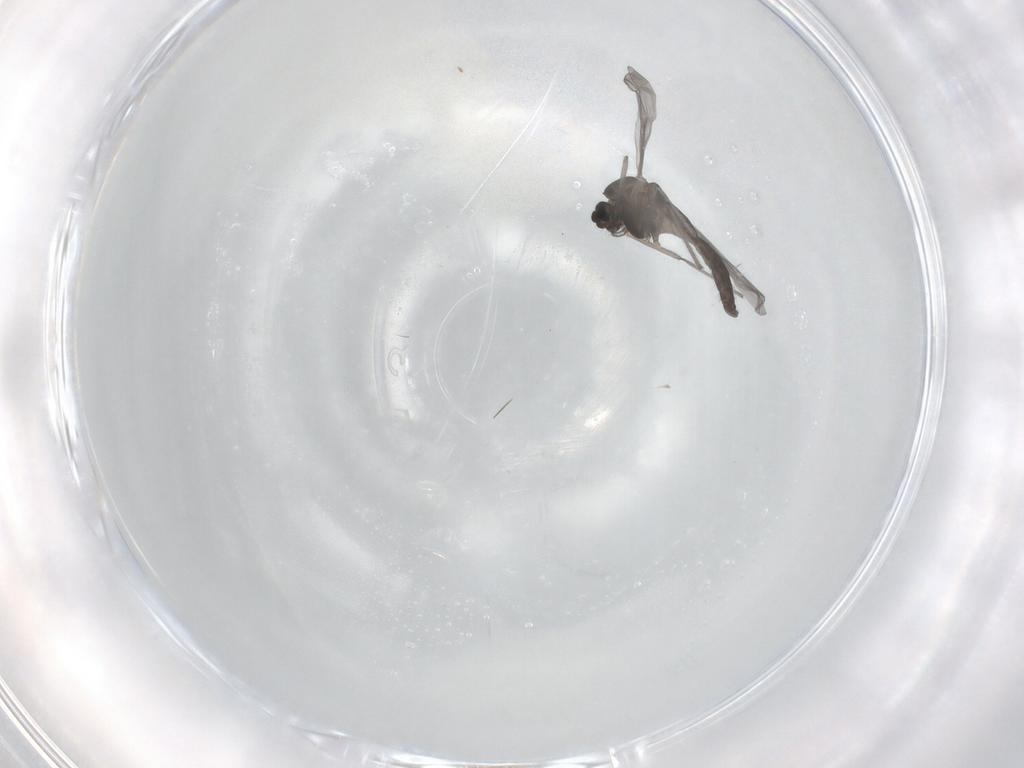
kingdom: Animalia
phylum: Arthropoda
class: Insecta
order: Diptera
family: Chironomidae
